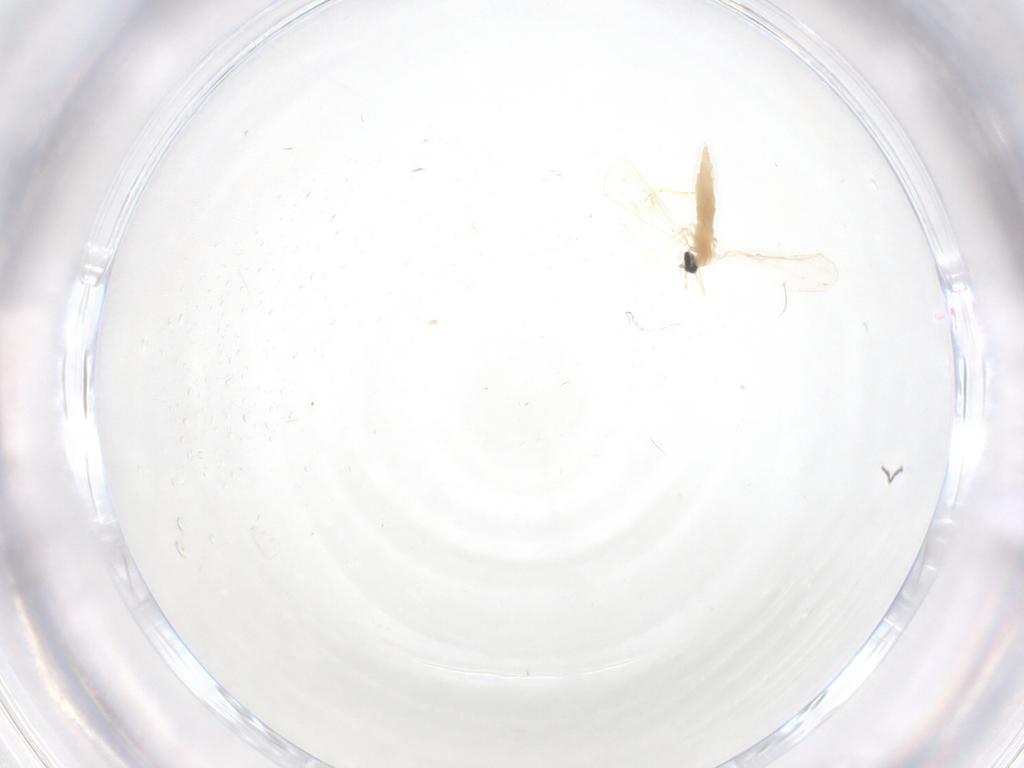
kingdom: Animalia
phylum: Arthropoda
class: Insecta
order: Diptera
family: Cecidomyiidae
